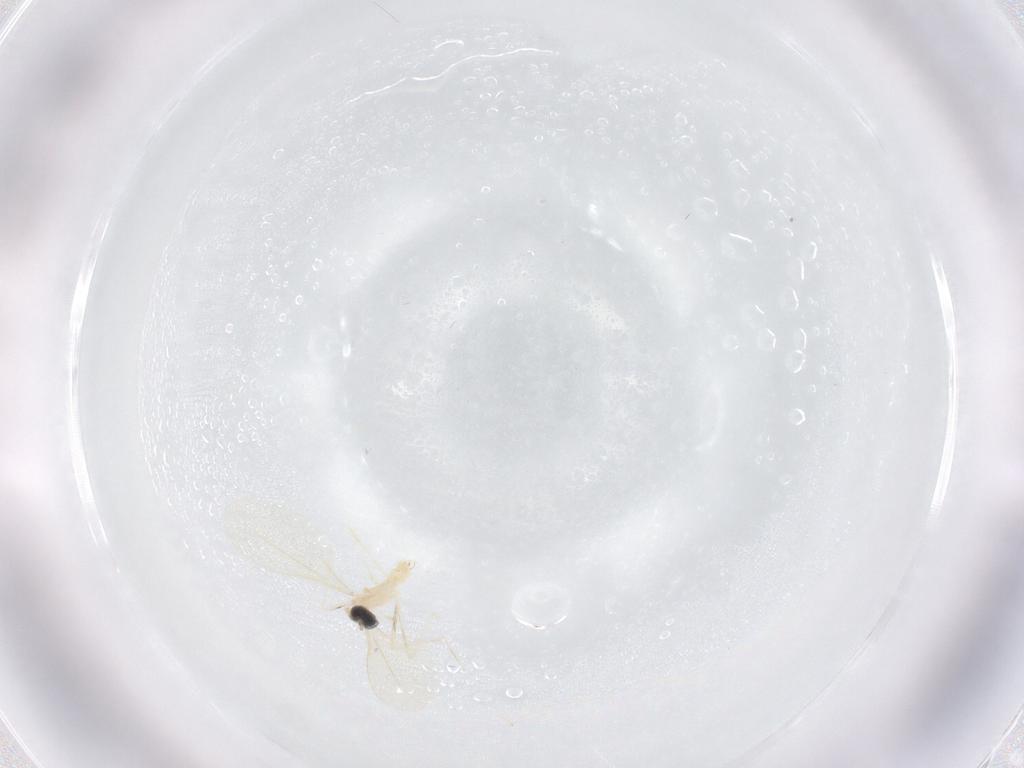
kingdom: Animalia
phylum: Arthropoda
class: Insecta
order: Diptera
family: Cecidomyiidae
